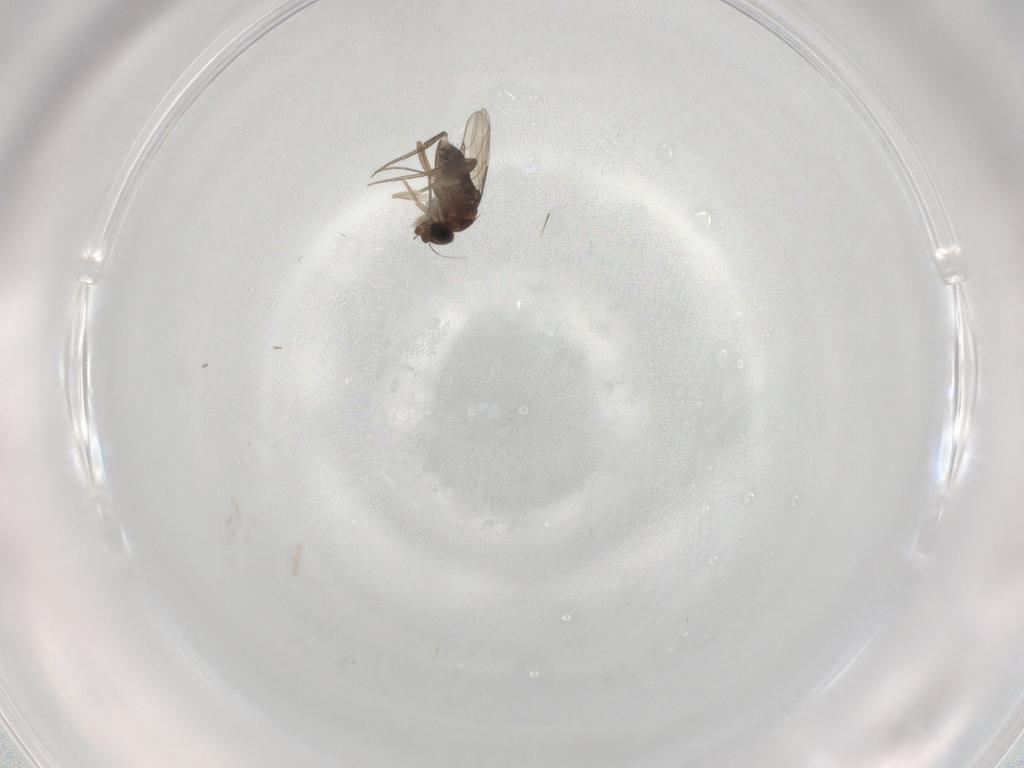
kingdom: Animalia
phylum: Arthropoda
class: Insecta
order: Diptera
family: Phoridae
